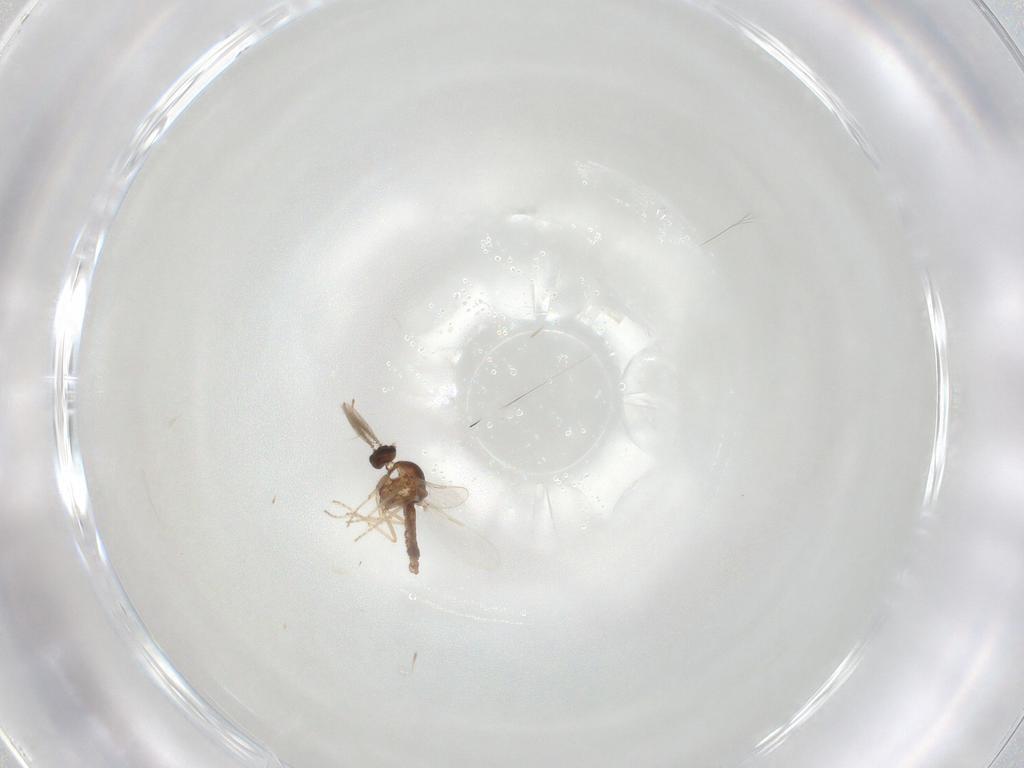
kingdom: Animalia
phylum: Arthropoda
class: Insecta
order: Diptera
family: Ceratopogonidae
